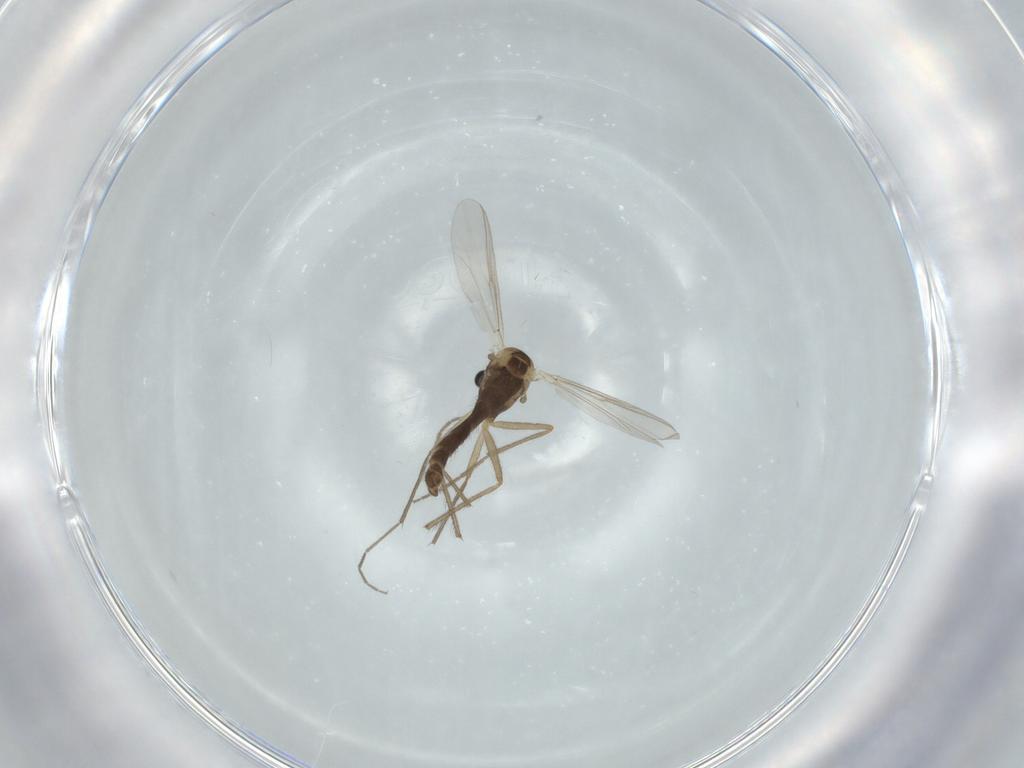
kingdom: Animalia
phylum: Arthropoda
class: Insecta
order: Diptera
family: Chironomidae
